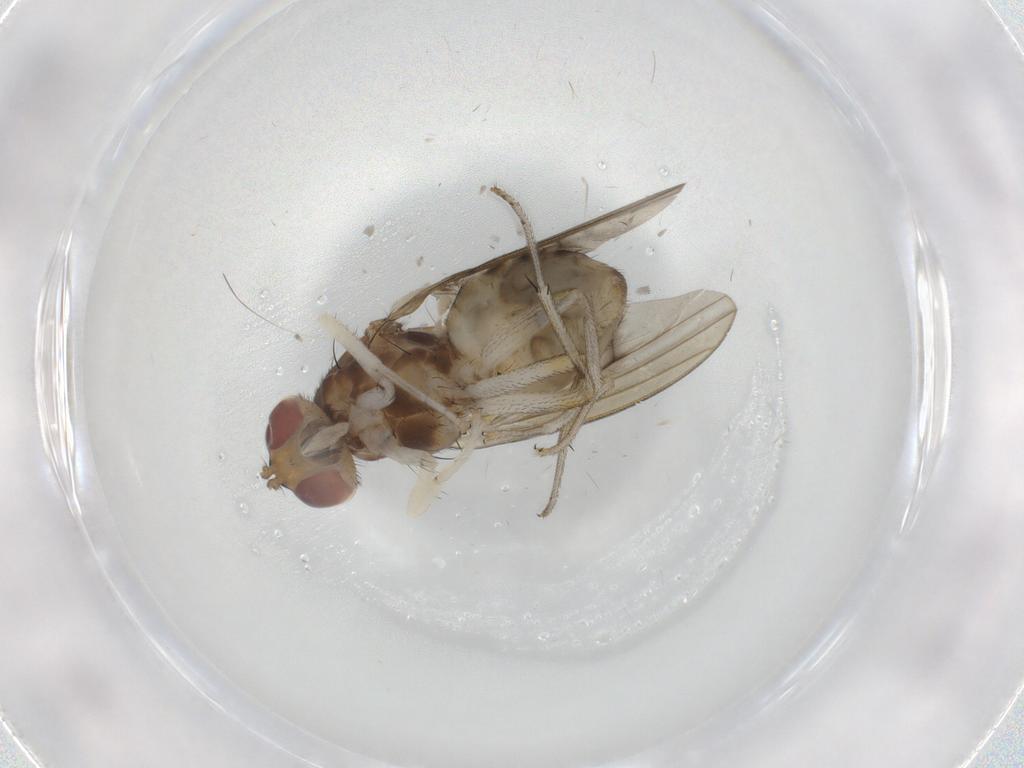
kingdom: Animalia
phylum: Arthropoda
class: Insecta
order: Diptera
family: Lauxaniidae
